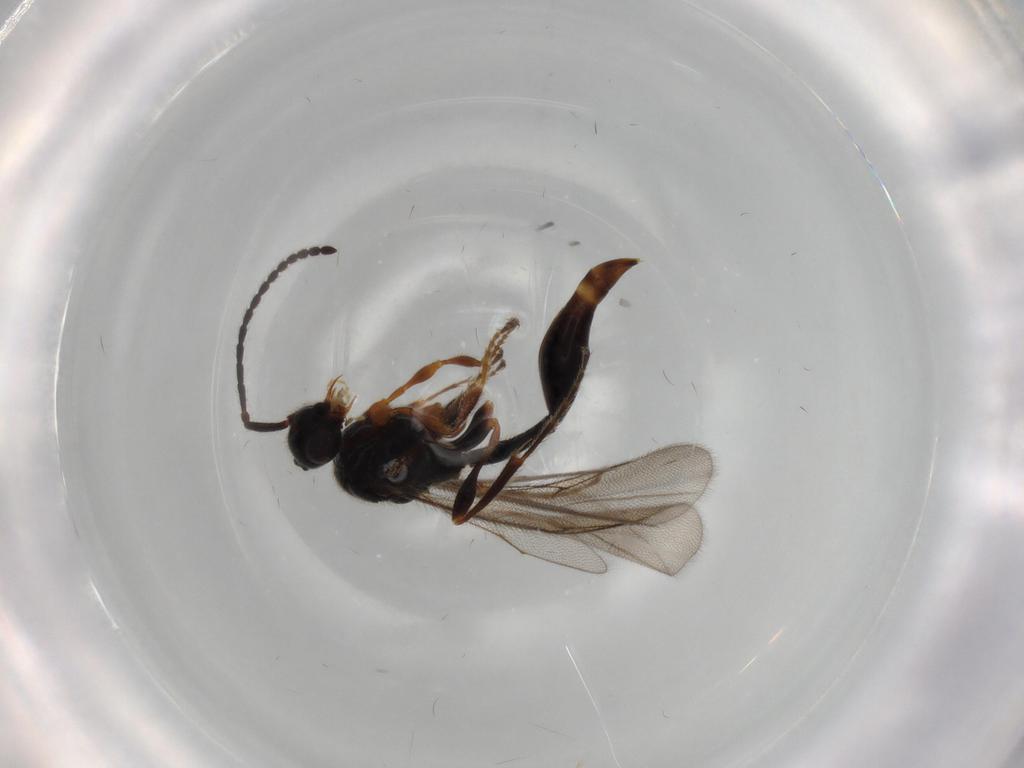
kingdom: Animalia
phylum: Arthropoda
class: Insecta
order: Hymenoptera
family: Diapriidae
